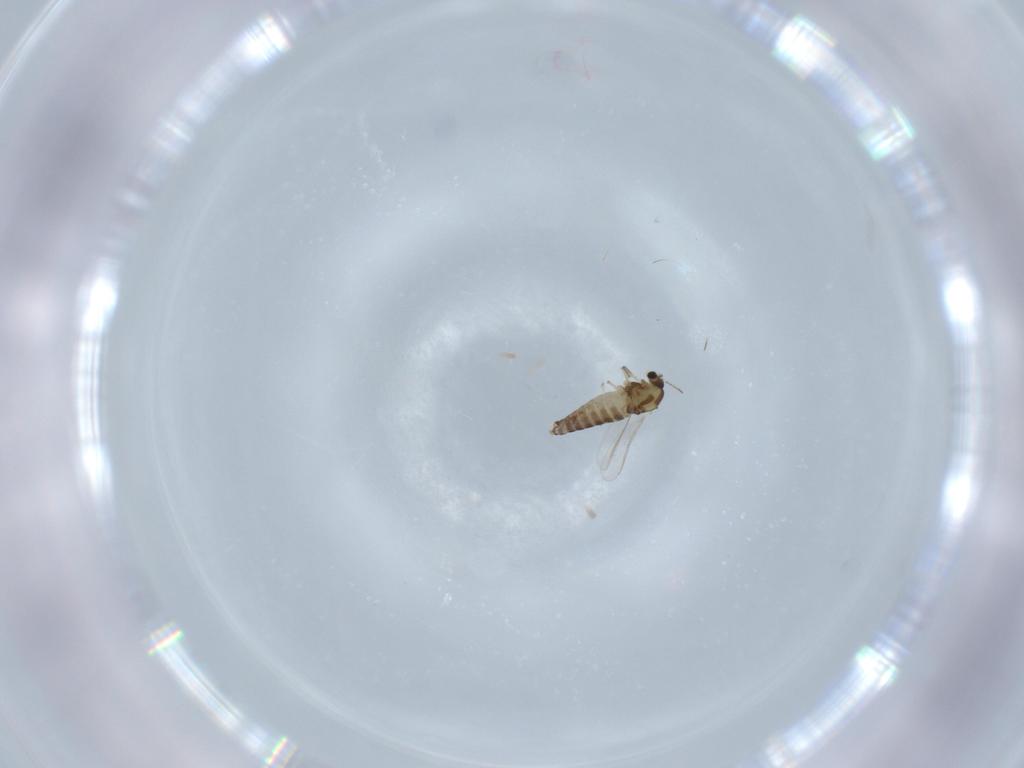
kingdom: Animalia
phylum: Arthropoda
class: Insecta
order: Diptera
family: Chironomidae
